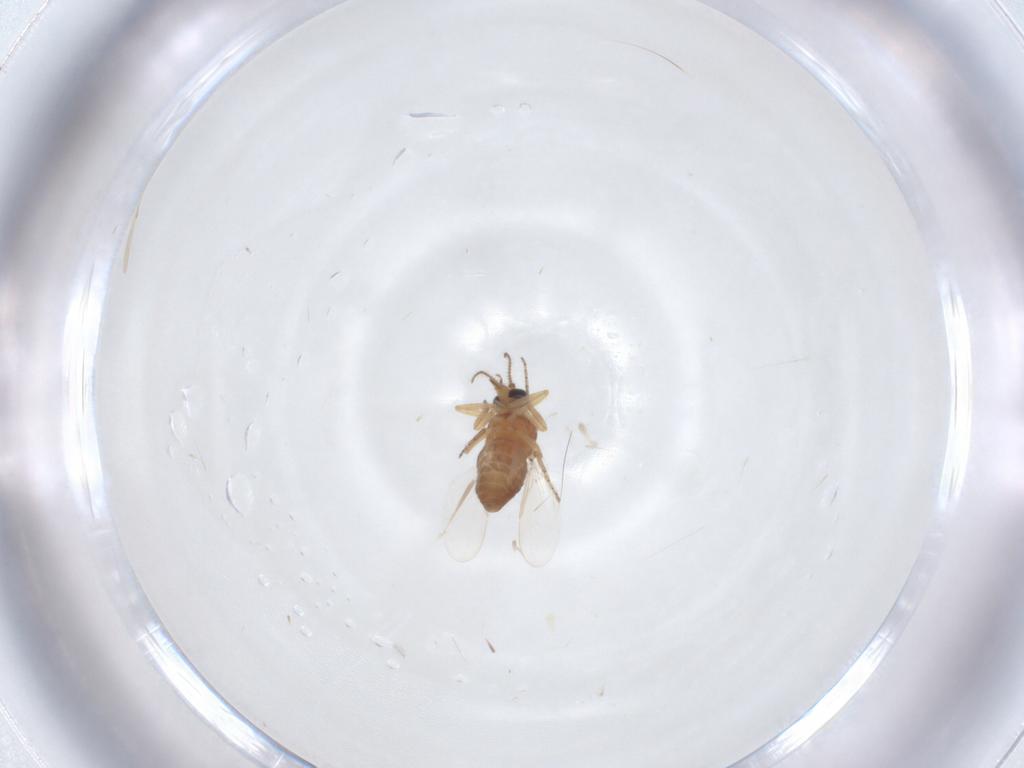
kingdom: Animalia
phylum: Arthropoda
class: Insecta
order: Diptera
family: Ceratopogonidae
